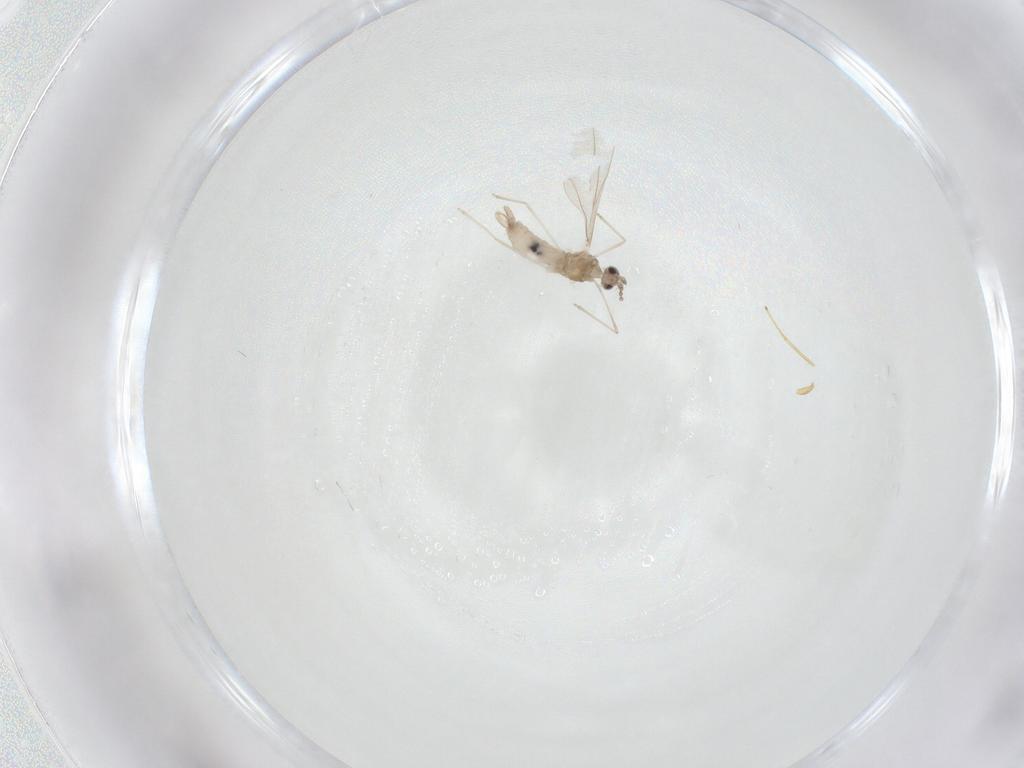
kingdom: Animalia
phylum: Arthropoda
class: Insecta
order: Diptera
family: Cecidomyiidae
